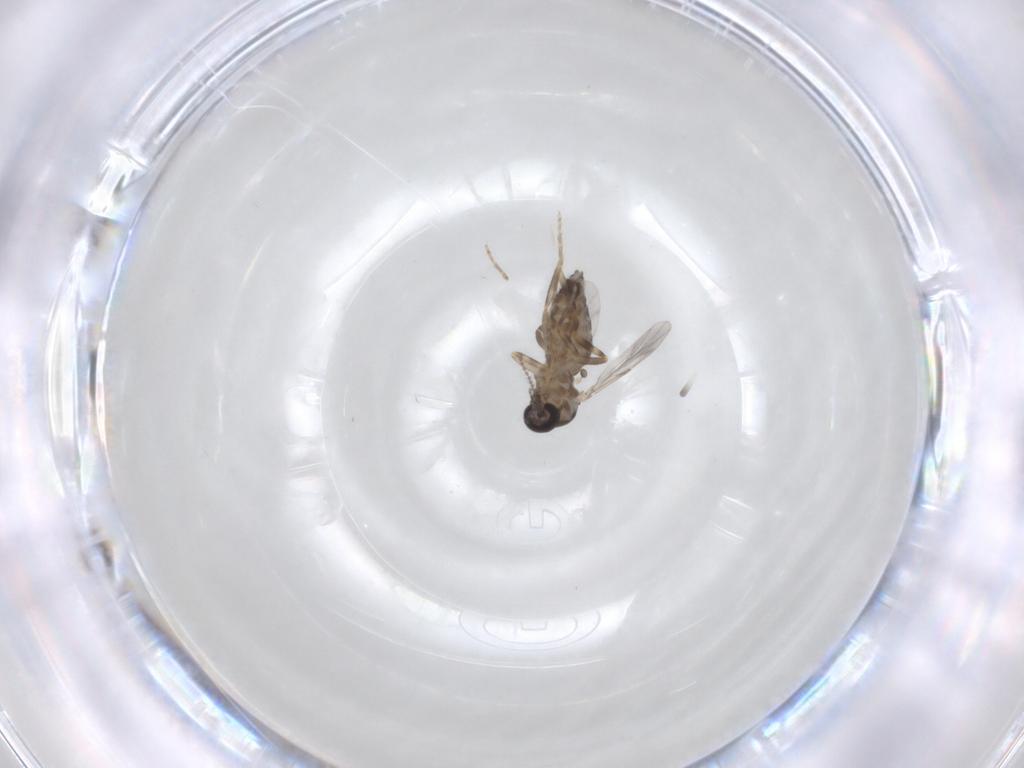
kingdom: Animalia
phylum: Arthropoda
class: Insecta
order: Diptera
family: Ceratopogonidae
